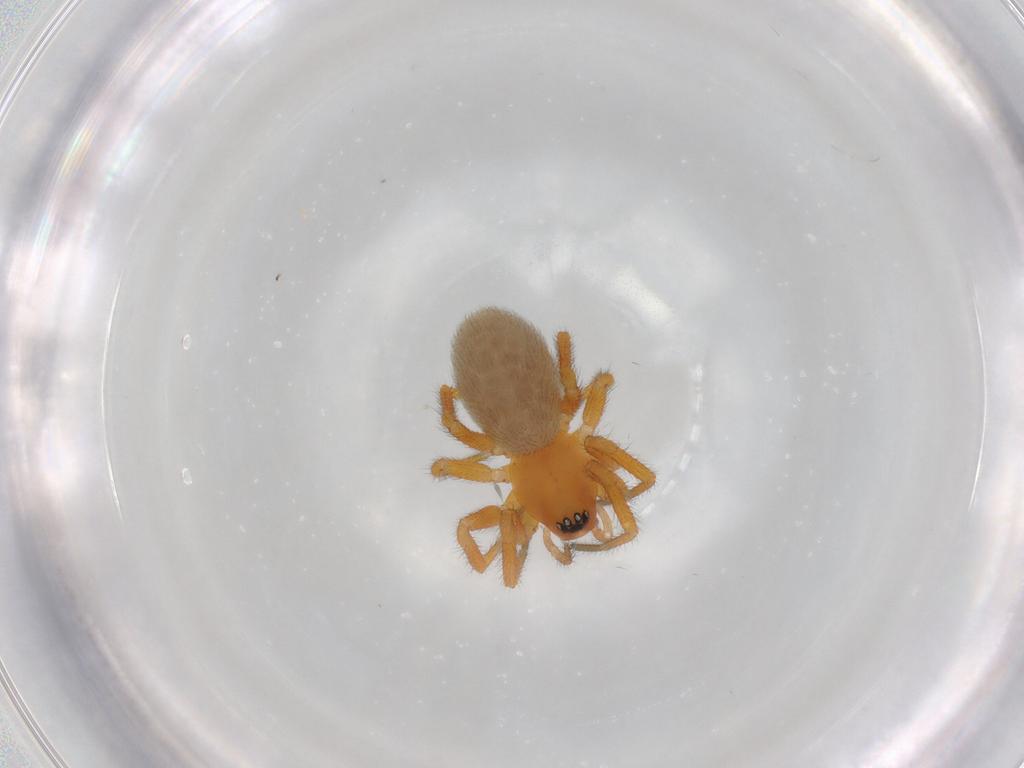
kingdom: Animalia
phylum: Arthropoda
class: Arachnida
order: Araneae
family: Linyphiidae
